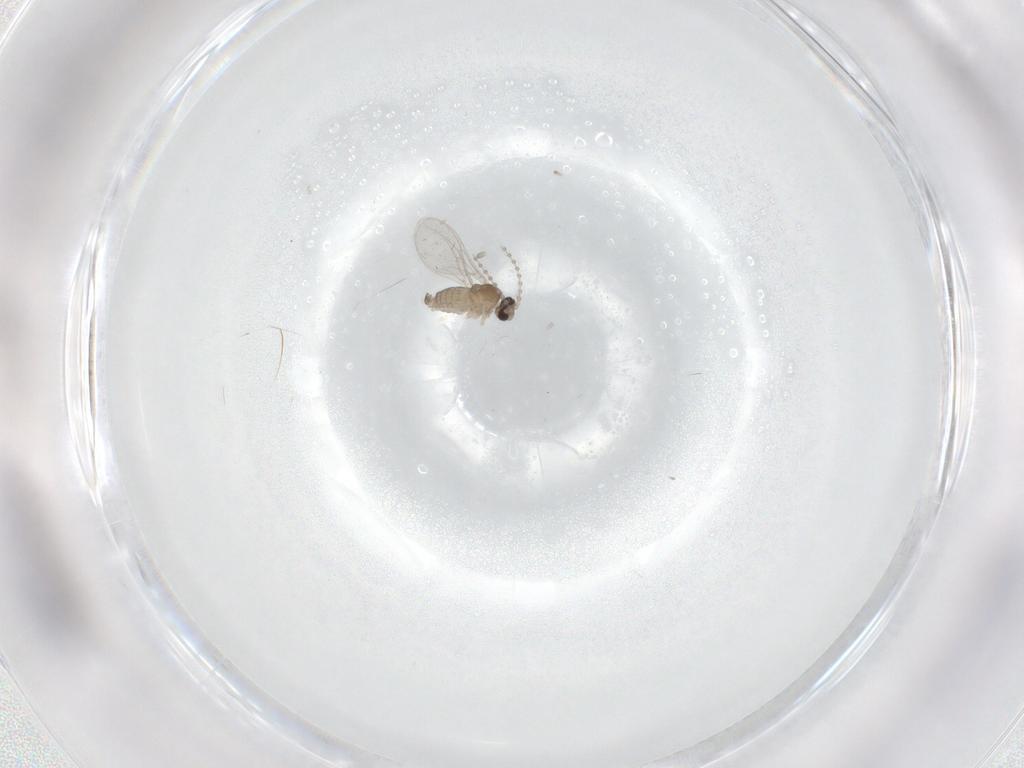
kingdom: Animalia
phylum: Arthropoda
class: Insecta
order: Diptera
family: Cecidomyiidae
